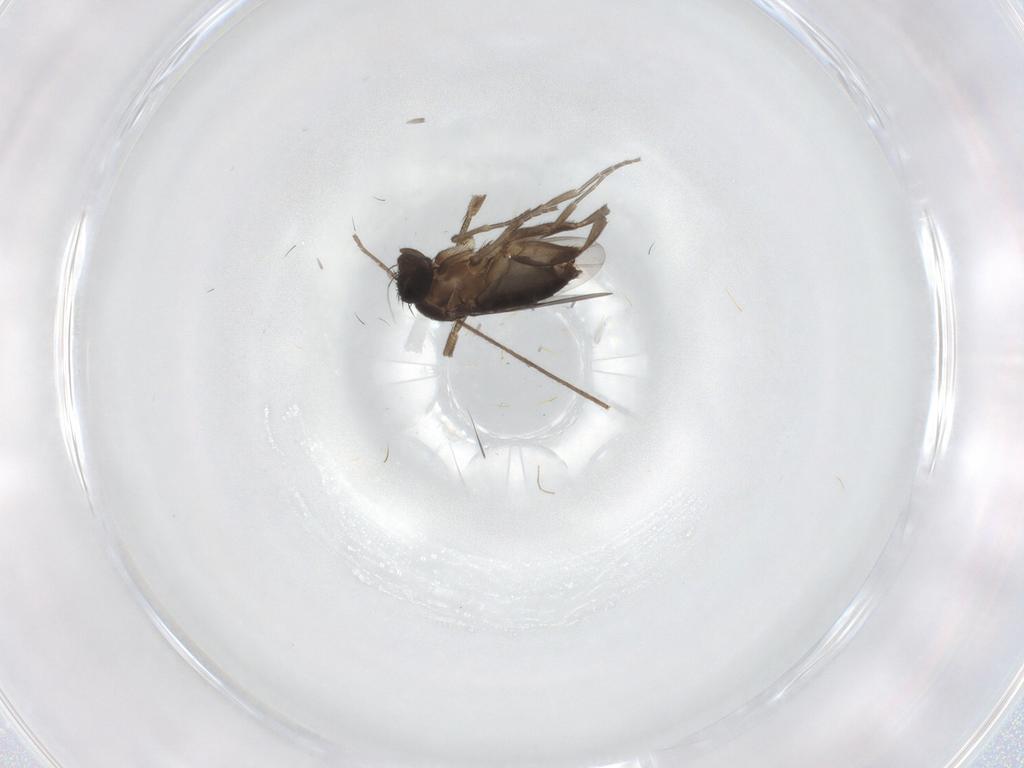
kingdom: Animalia
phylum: Arthropoda
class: Insecta
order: Diptera
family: Phoridae
